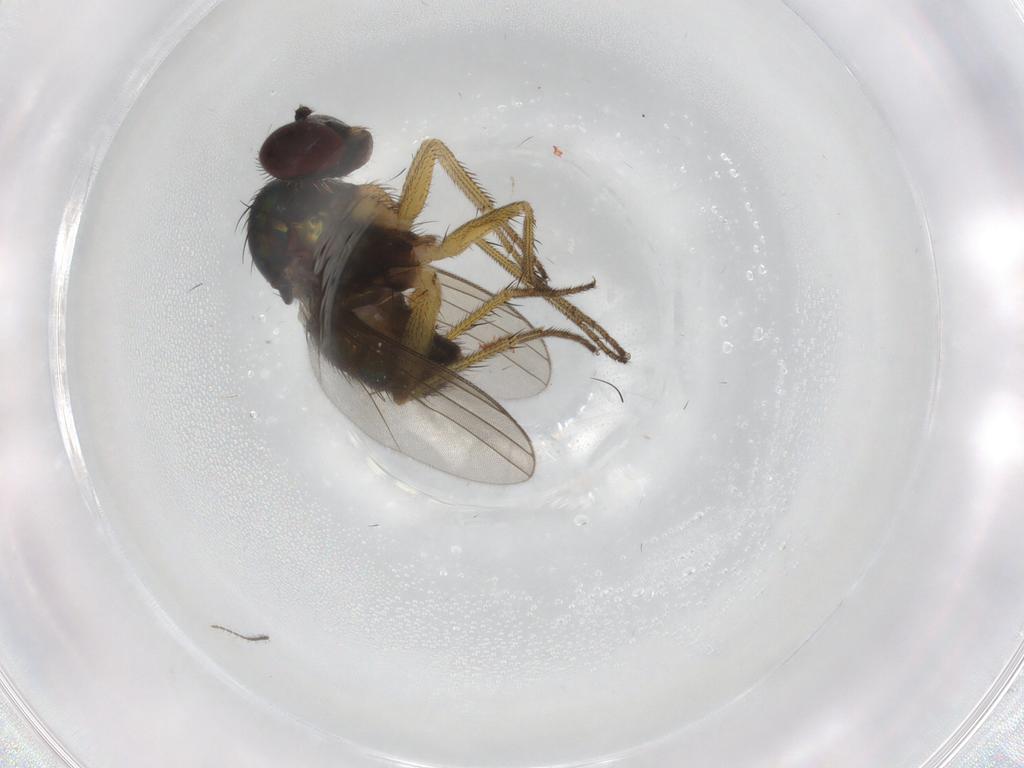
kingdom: Animalia
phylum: Arthropoda
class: Insecta
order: Diptera
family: Dolichopodidae
